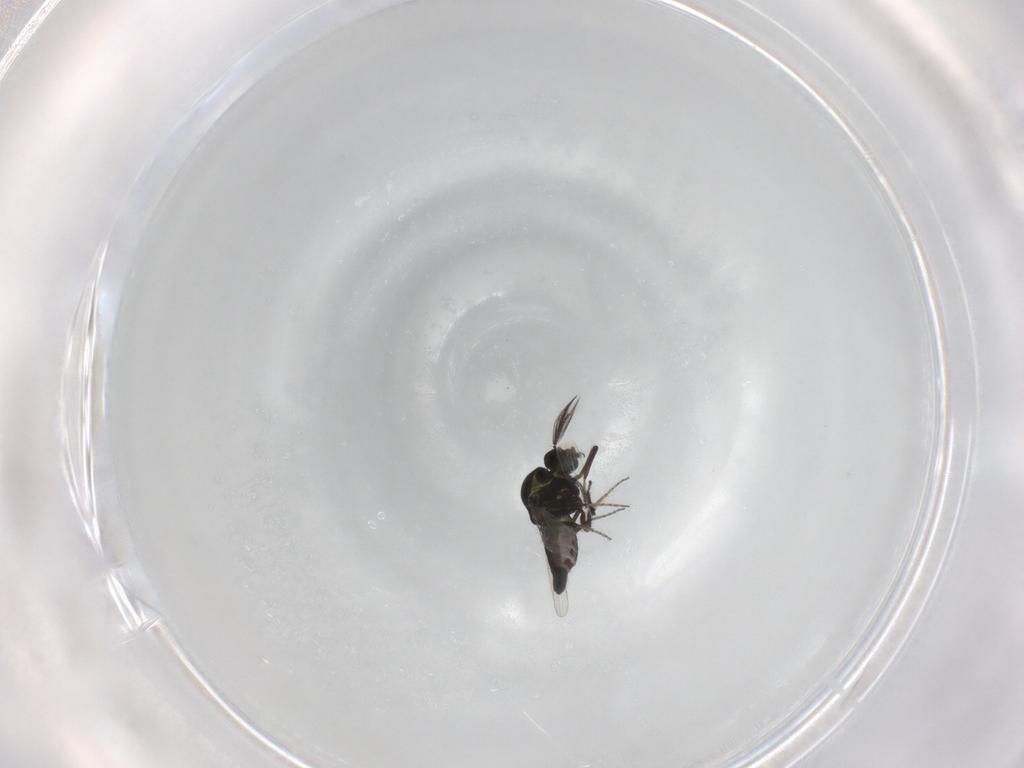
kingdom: Animalia
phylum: Arthropoda
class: Insecta
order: Diptera
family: Ceratopogonidae
